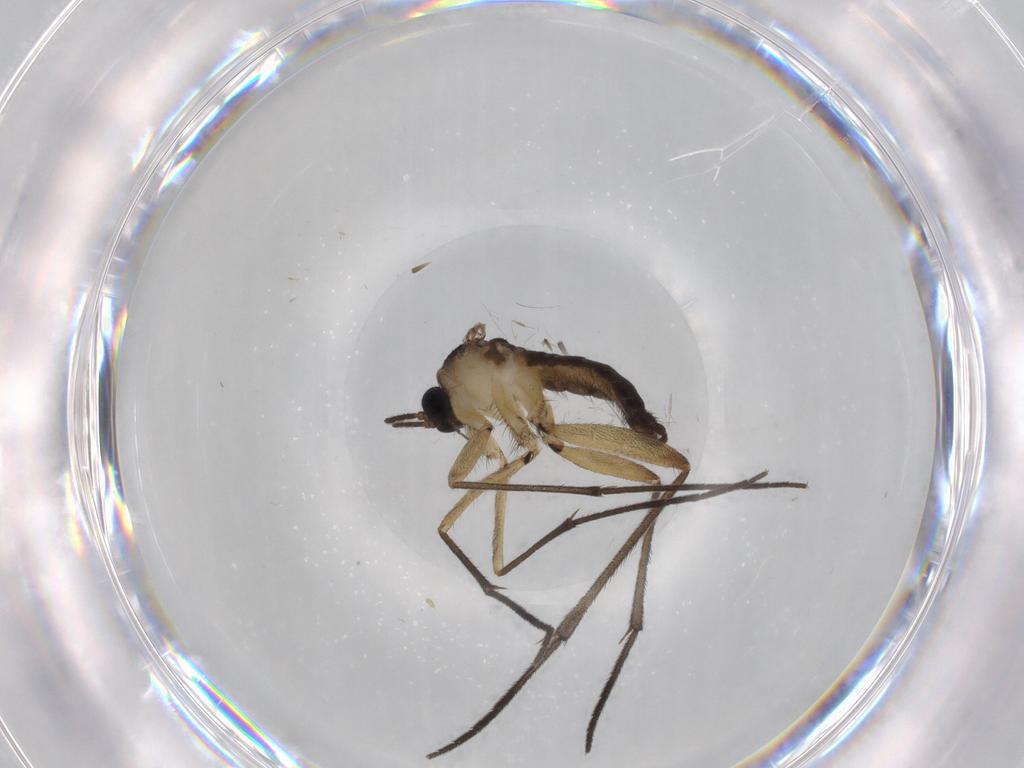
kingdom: Animalia
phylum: Arthropoda
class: Insecta
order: Diptera
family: Sciaridae
